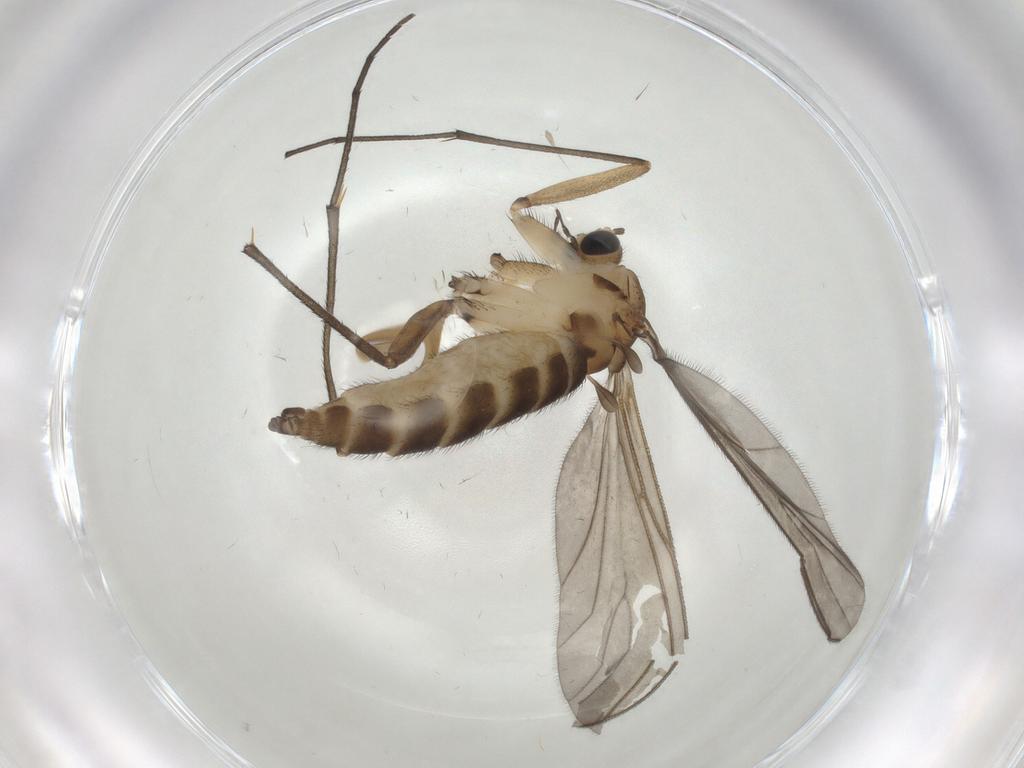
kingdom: Animalia
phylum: Arthropoda
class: Insecta
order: Diptera
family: Sciaridae
